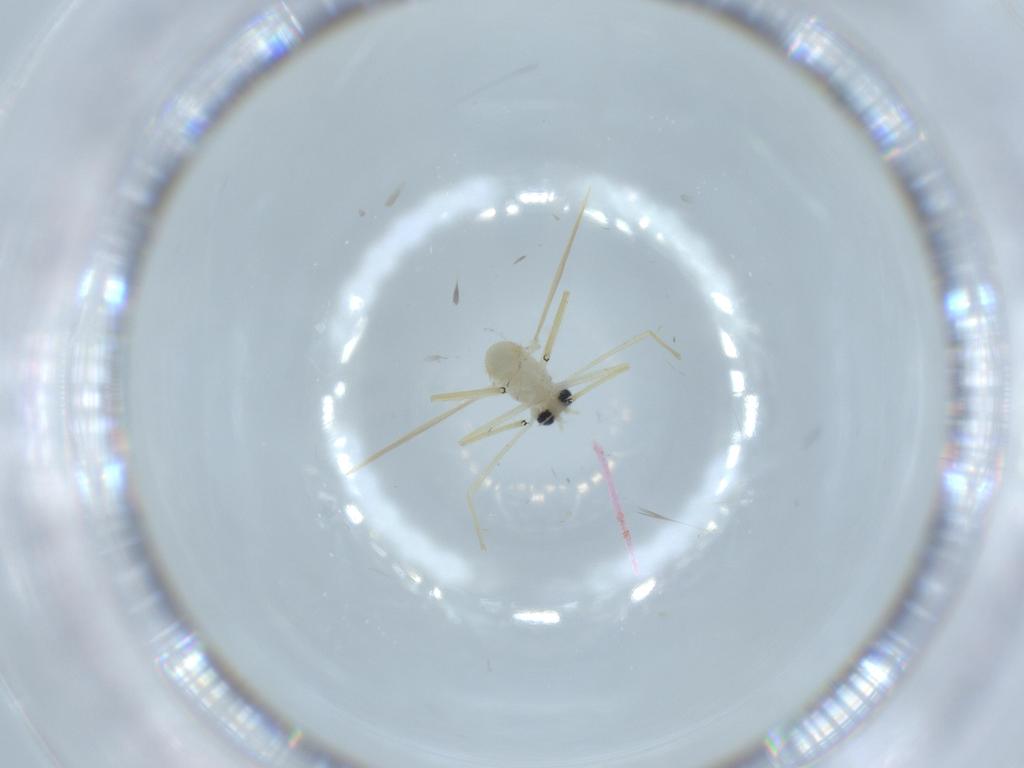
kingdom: Animalia
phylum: Arthropoda
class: Insecta
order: Diptera
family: Chironomidae
